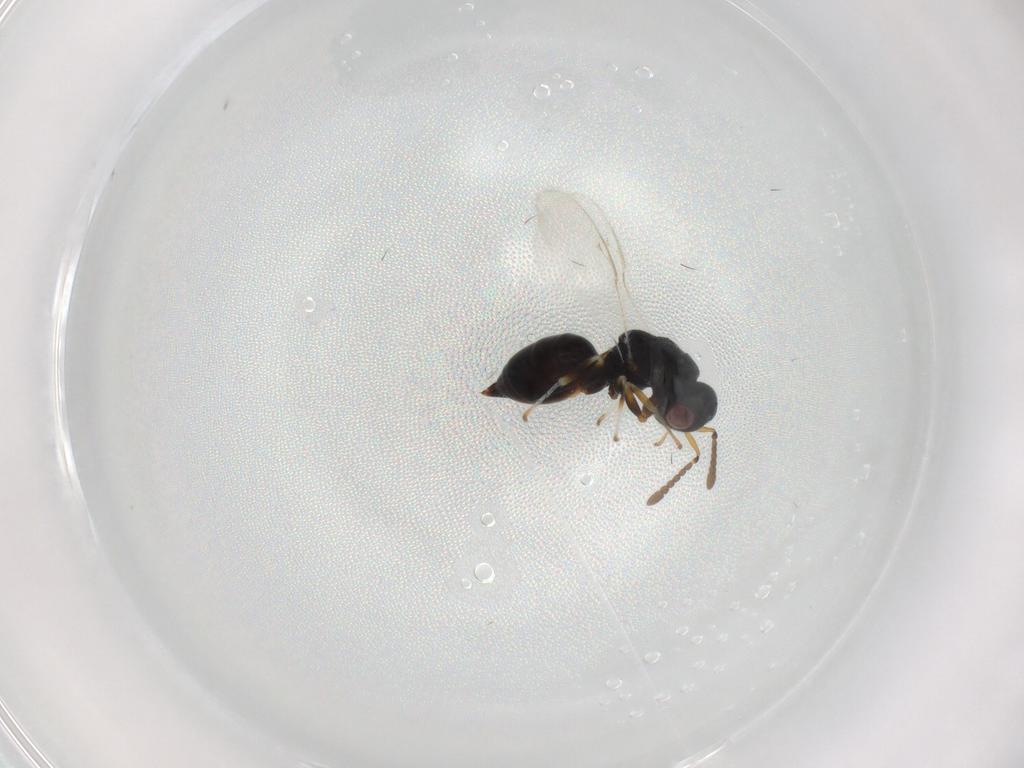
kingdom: Animalia
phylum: Arthropoda
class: Insecta
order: Hymenoptera
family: Eurytomidae
